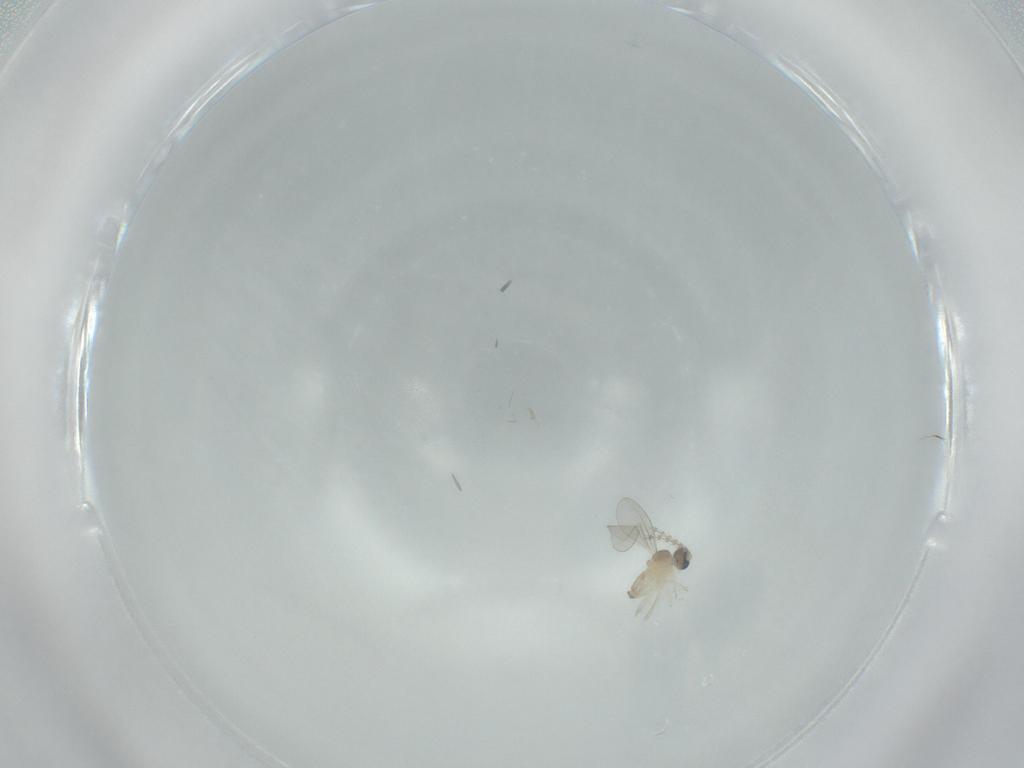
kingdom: Animalia
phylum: Arthropoda
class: Insecta
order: Diptera
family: Cecidomyiidae
